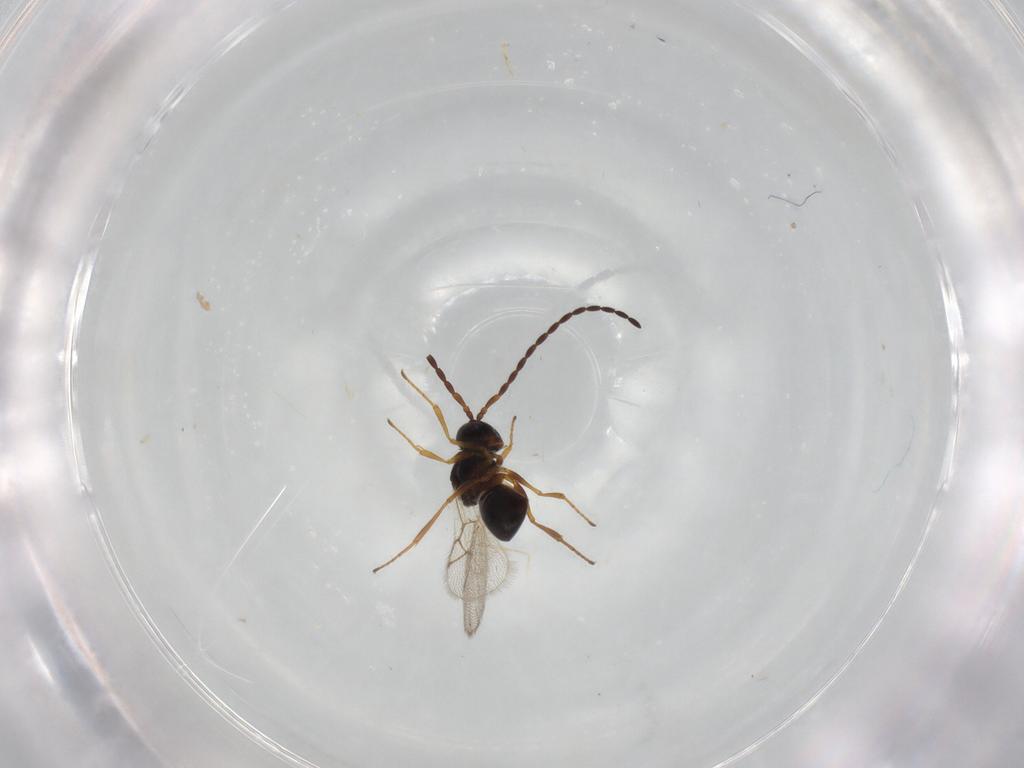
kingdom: Animalia
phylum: Arthropoda
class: Insecta
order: Hymenoptera
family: Figitidae
